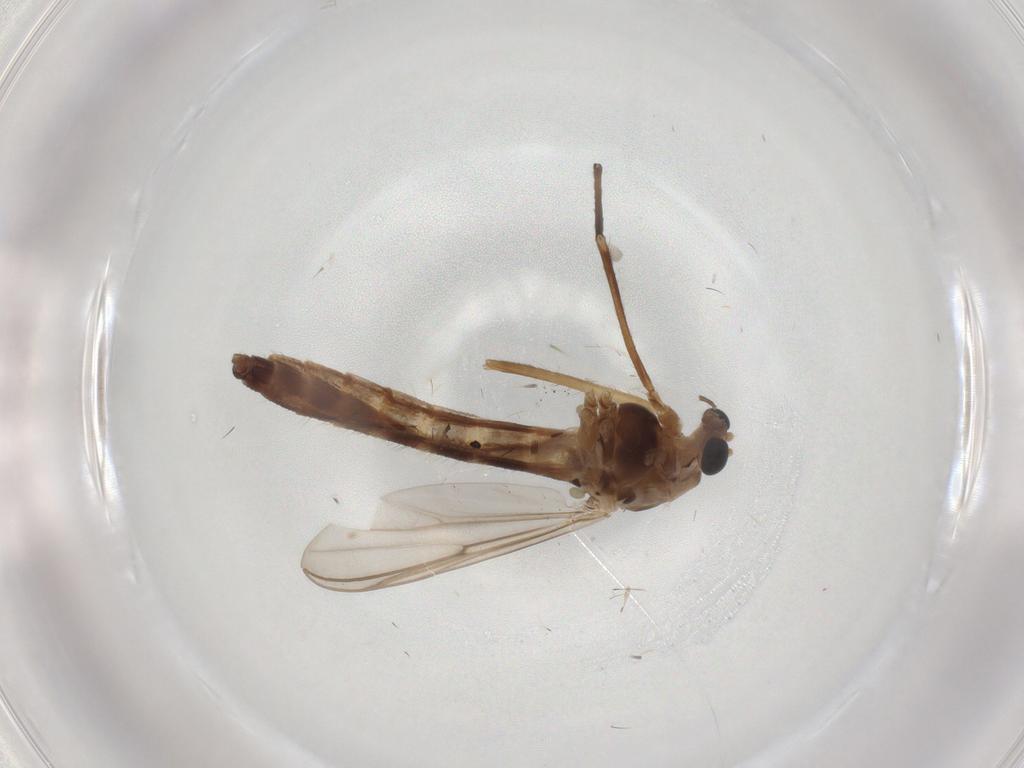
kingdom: Animalia
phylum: Arthropoda
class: Insecta
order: Diptera
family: Chironomidae
